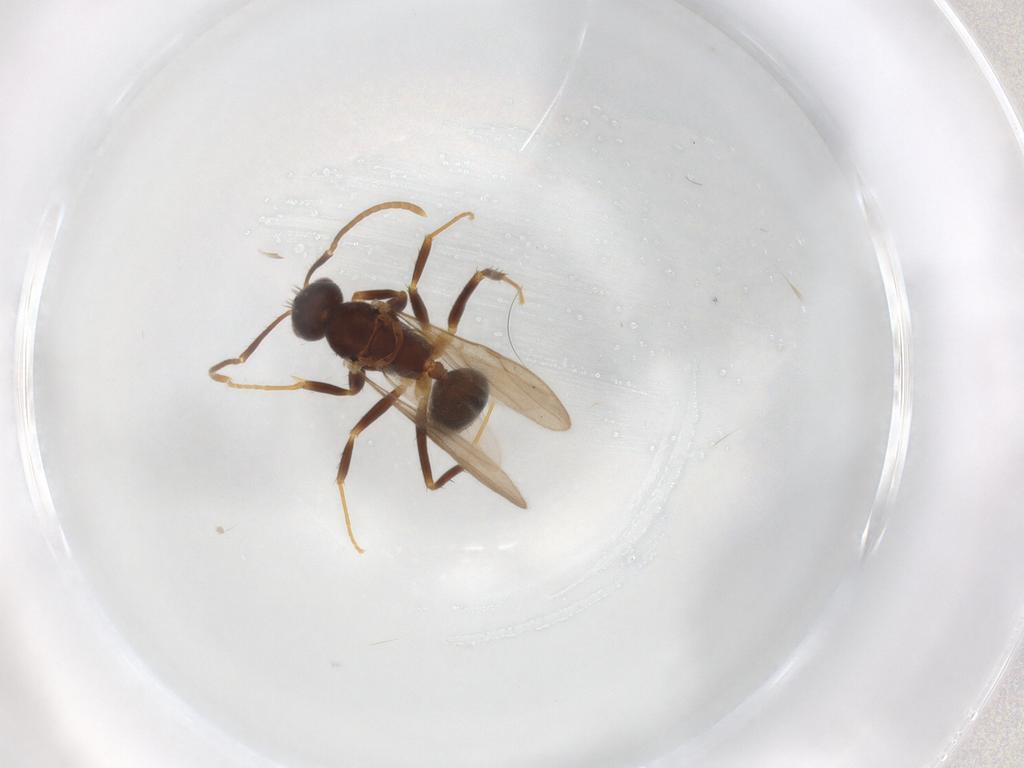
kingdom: Animalia
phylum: Arthropoda
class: Insecta
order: Hymenoptera
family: Formicidae
